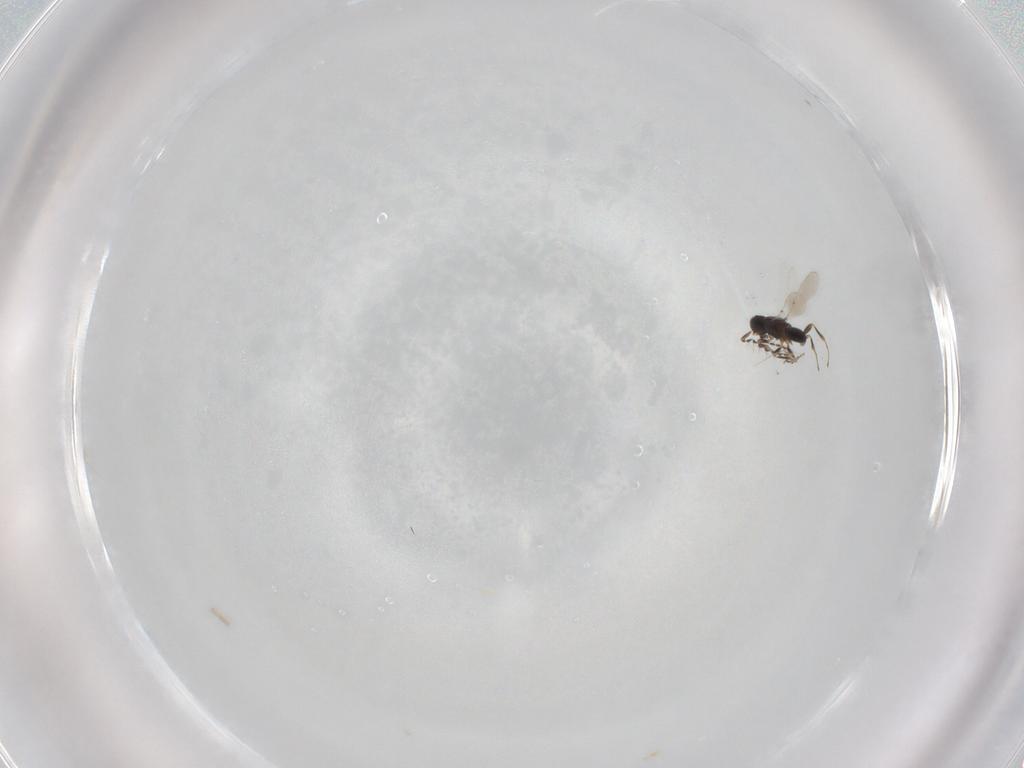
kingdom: Animalia
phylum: Arthropoda
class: Insecta
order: Hymenoptera
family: Platygastridae
